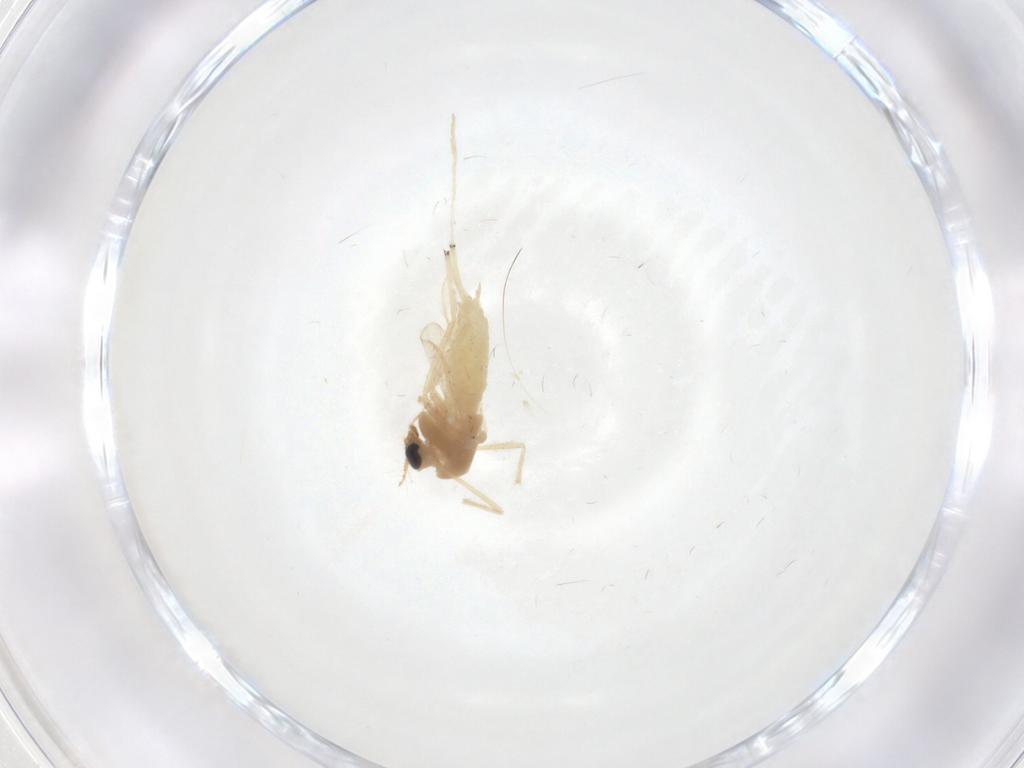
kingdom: Animalia
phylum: Arthropoda
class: Insecta
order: Diptera
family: Cecidomyiidae
